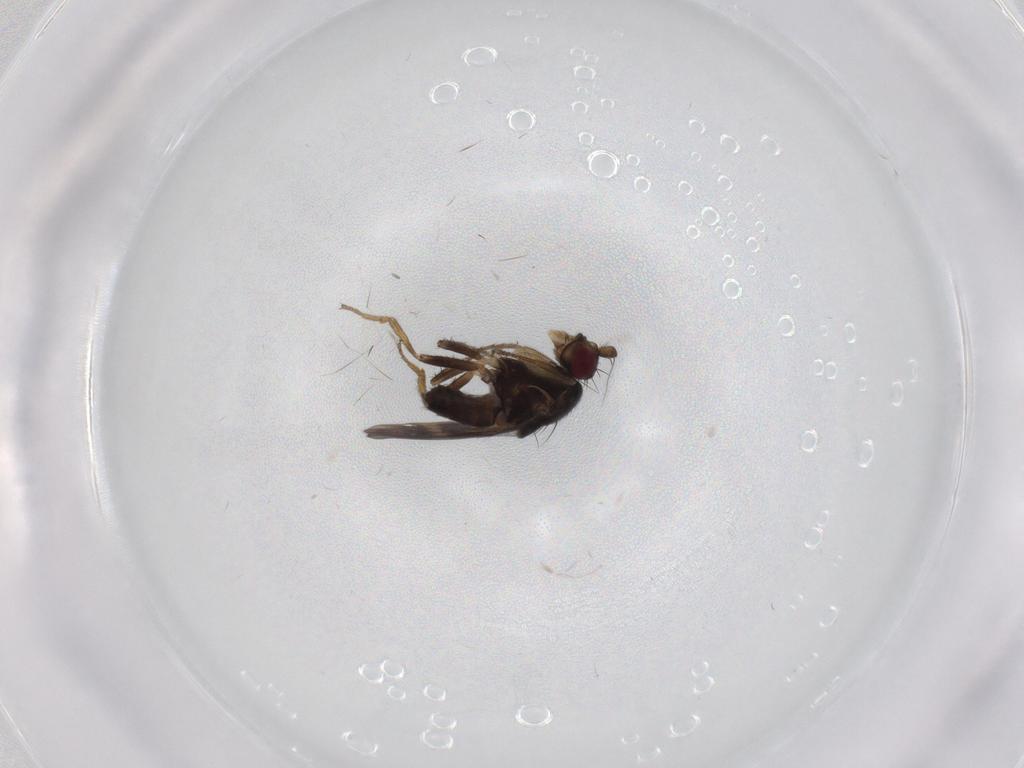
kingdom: Animalia
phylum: Arthropoda
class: Insecta
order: Diptera
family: Sphaeroceridae
